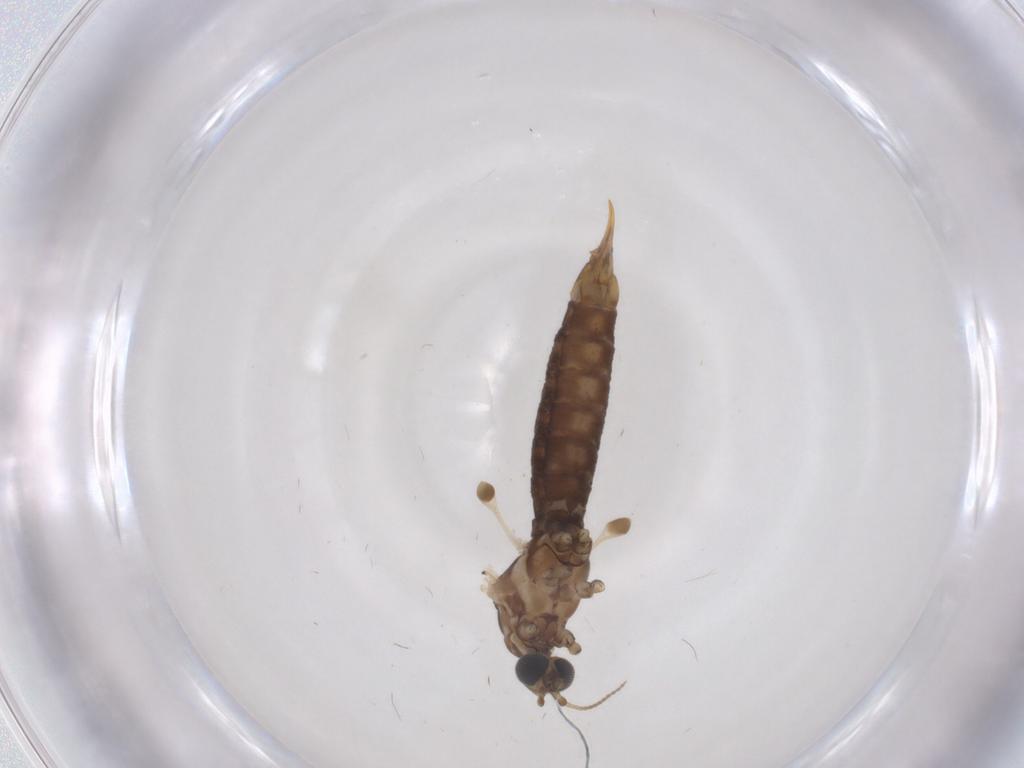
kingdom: Animalia
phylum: Arthropoda
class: Insecta
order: Diptera
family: Limoniidae
